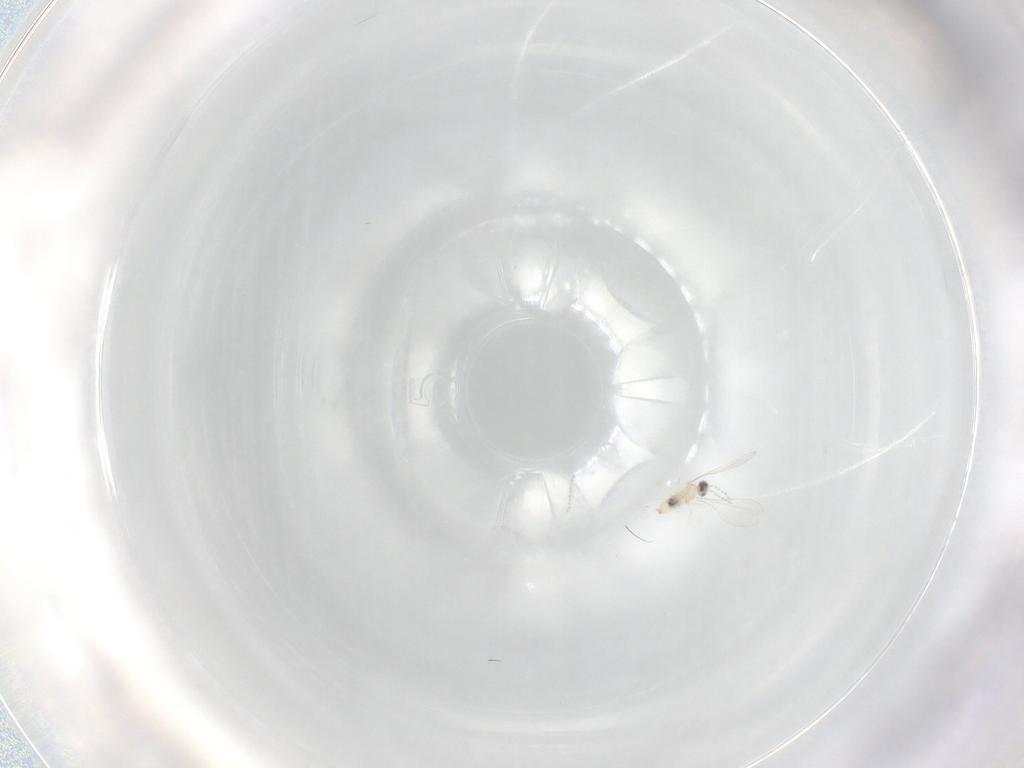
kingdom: Animalia
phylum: Arthropoda
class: Insecta
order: Diptera
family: Cecidomyiidae
